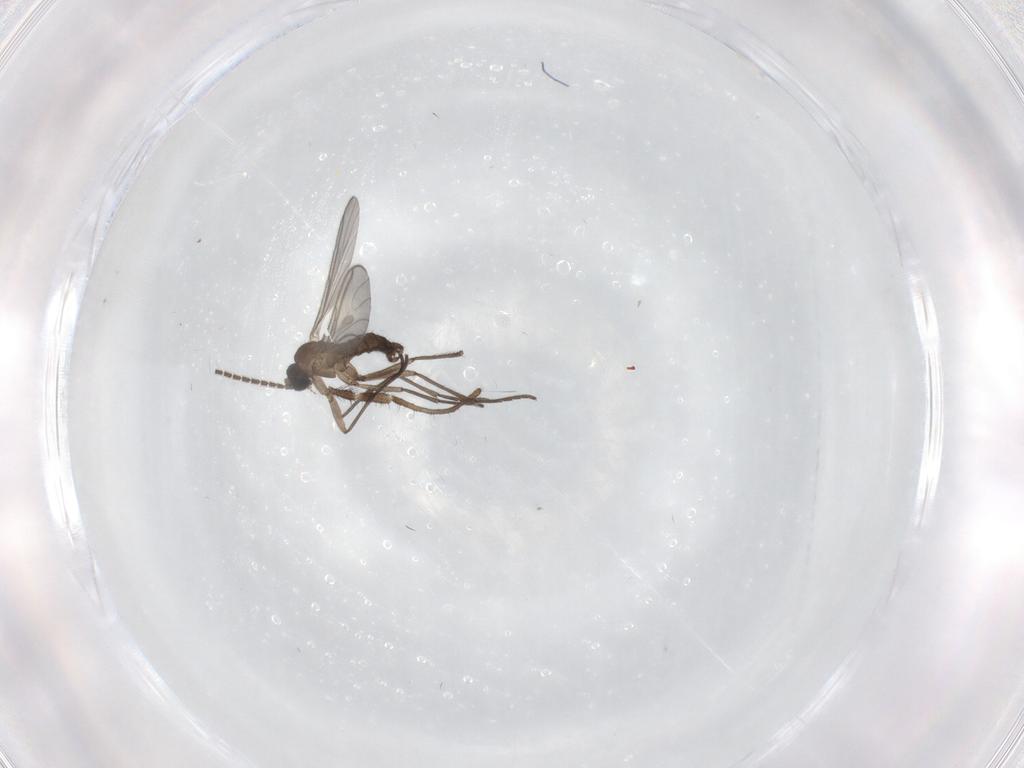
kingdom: Animalia
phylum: Arthropoda
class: Insecta
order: Diptera
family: Sciaridae
